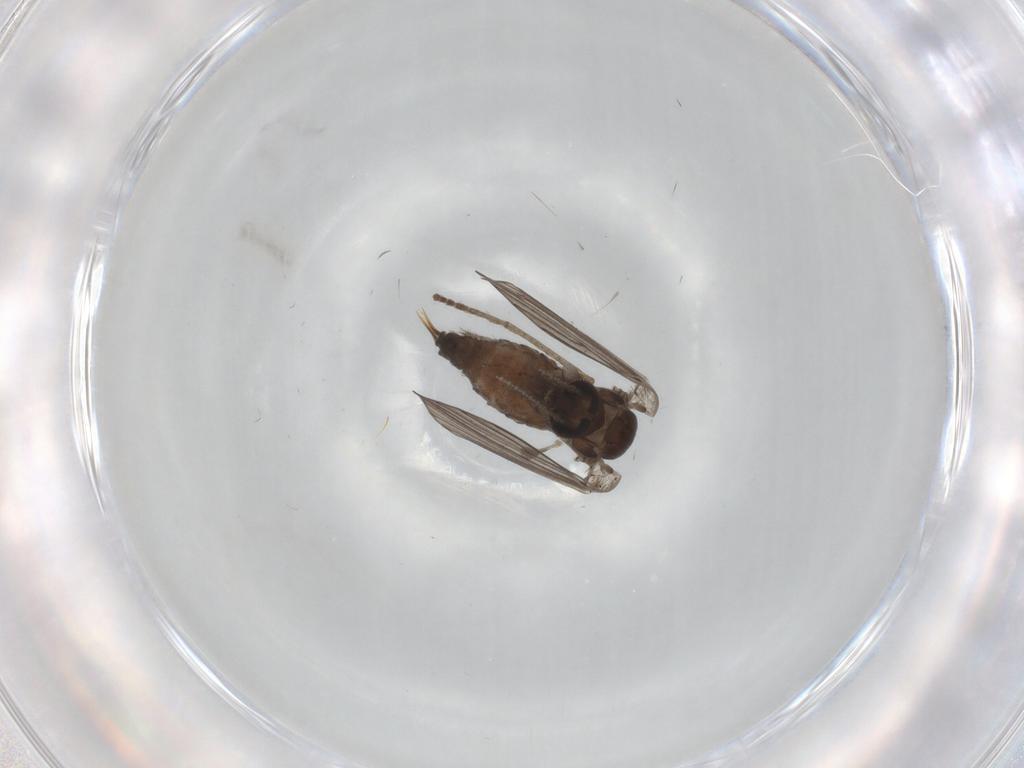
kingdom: Animalia
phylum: Arthropoda
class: Insecta
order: Diptera
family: Psychodidae
